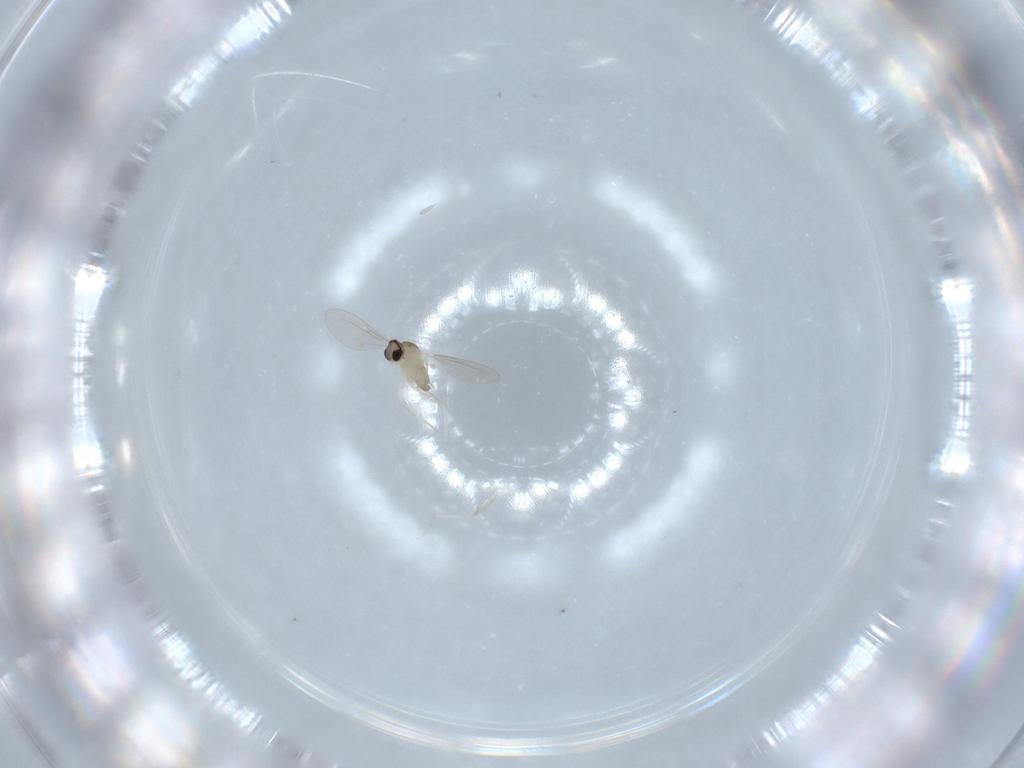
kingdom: Animalia
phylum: Arthropoda
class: Insecta
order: Diptera
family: Cecidomyiidae
